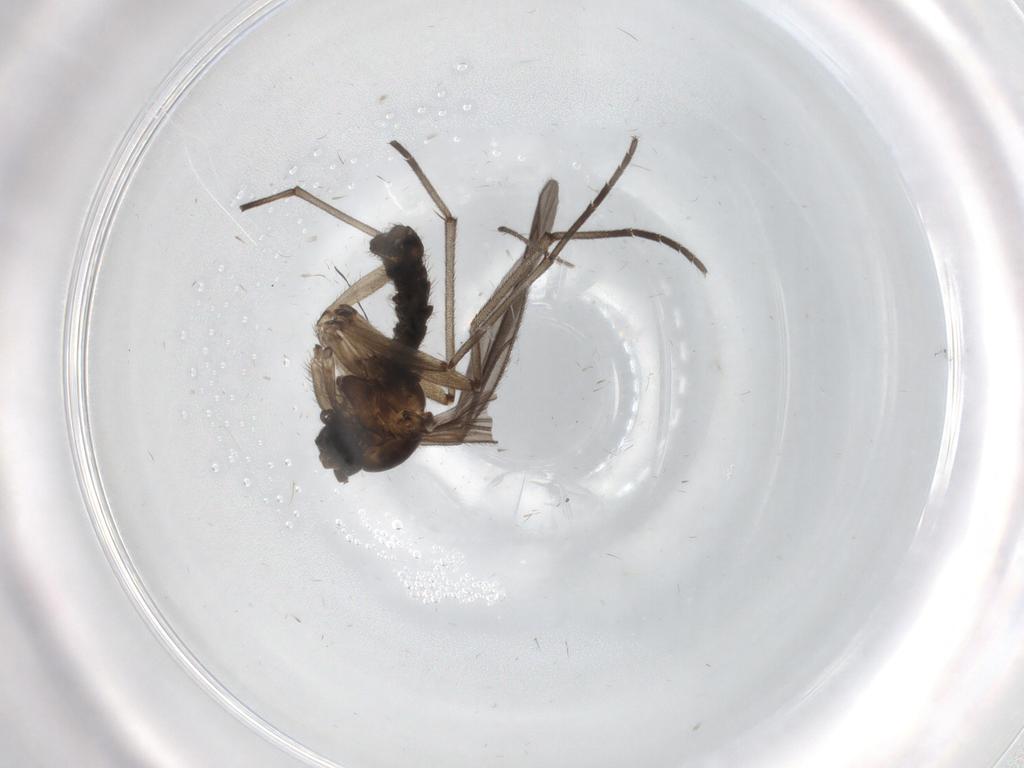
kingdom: Animalia
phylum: Arthropoda
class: Insecta
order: Diptera
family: Sciaridae
